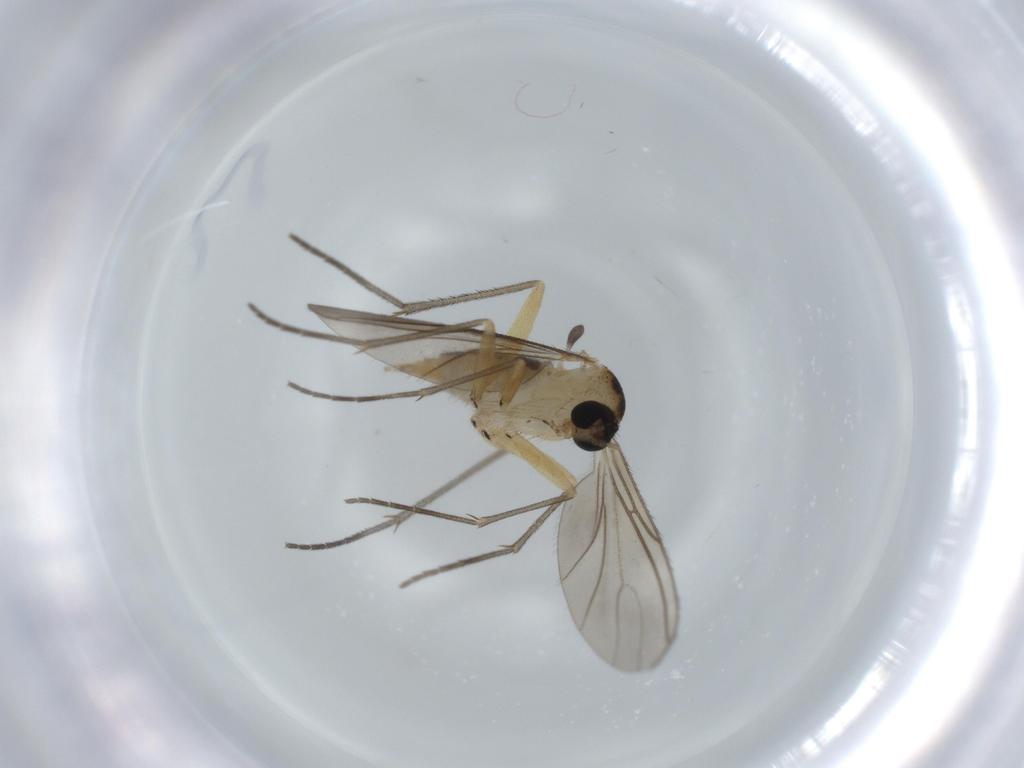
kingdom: Animalia
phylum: Arthropoda
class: Insecta
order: Diptera
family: Sciaridae
